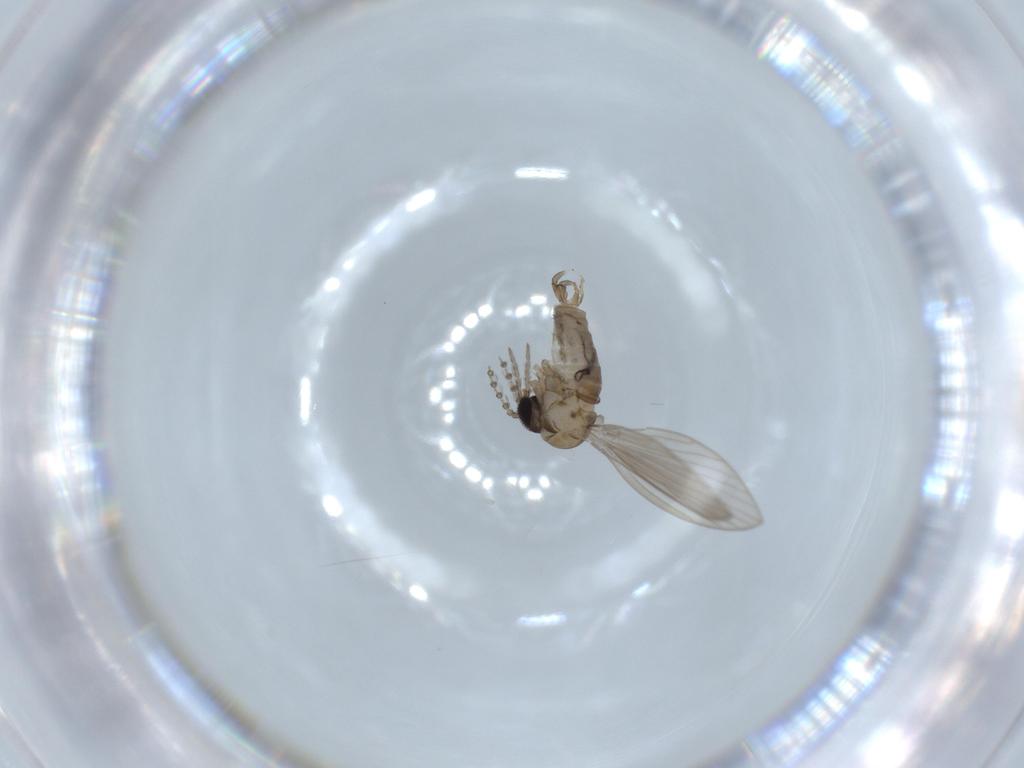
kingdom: Animalia
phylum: Arthropoda
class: Insecta
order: Diptera
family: Psychodidae
